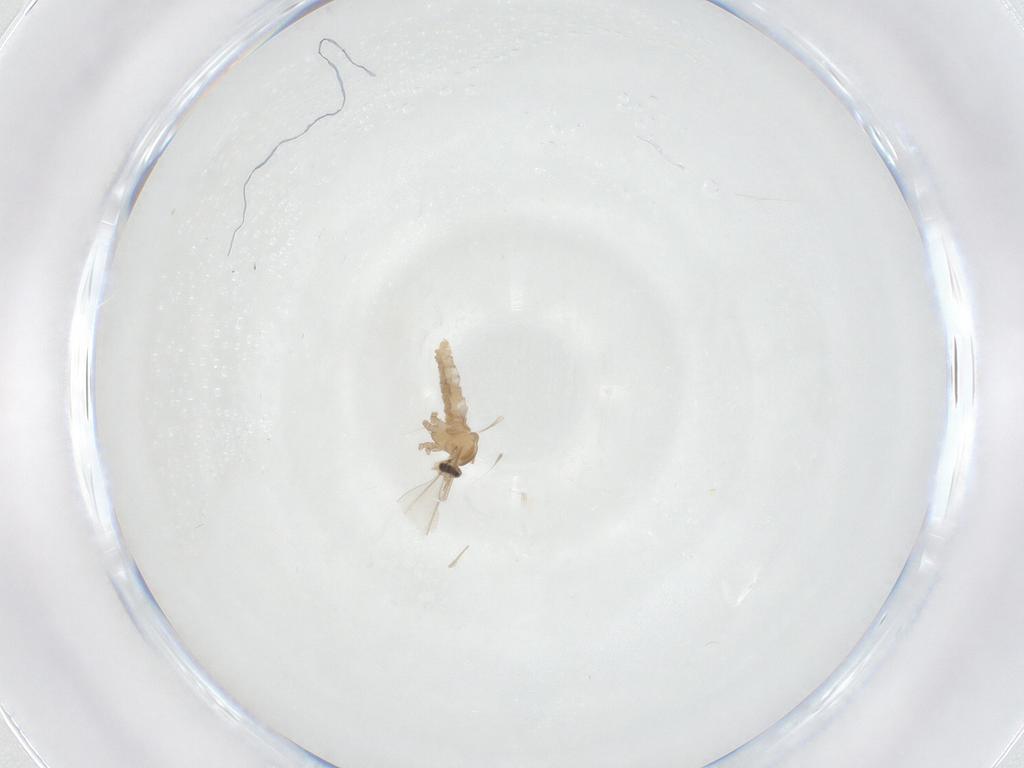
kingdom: Animalia
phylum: Arthropoda
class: Insecta
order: Diptera
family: Cecidomyiidae
